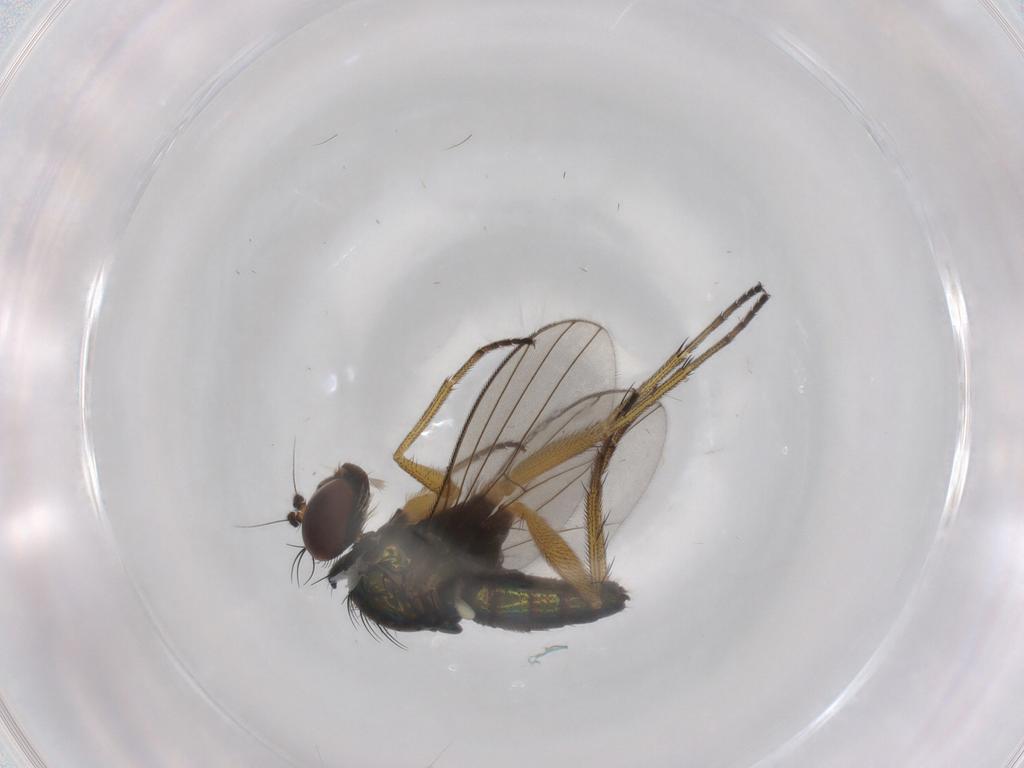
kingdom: Animalia
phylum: Arthropoda
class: Insecta
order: Diptera
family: Dolichopodidae
